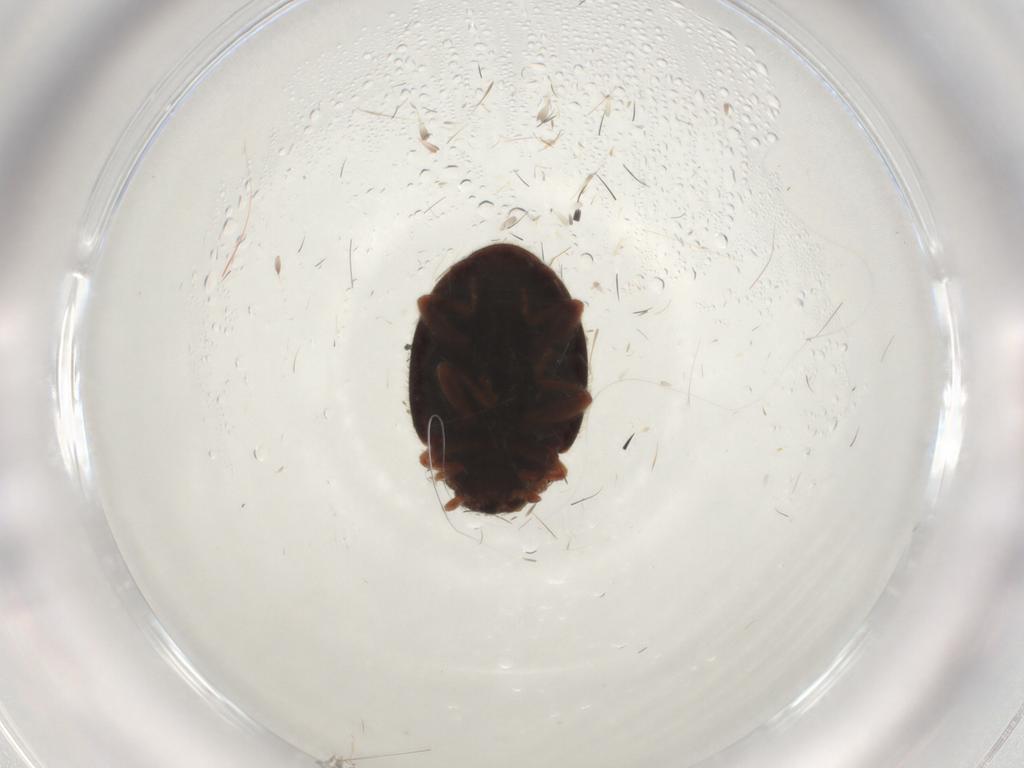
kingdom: Animalia
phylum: Arthropoda
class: Insecta
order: Coleoptera
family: Coccinellidae
